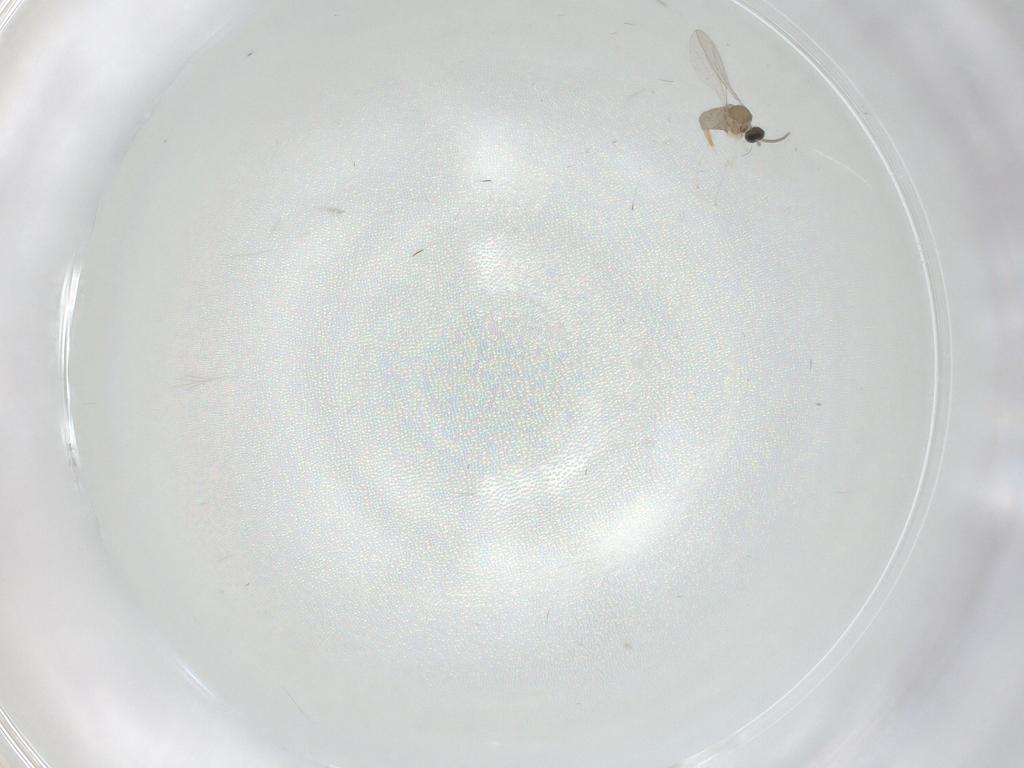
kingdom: Animalia
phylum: Arthropoda
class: Insecta
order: Diptera
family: Cecidomyiidae
